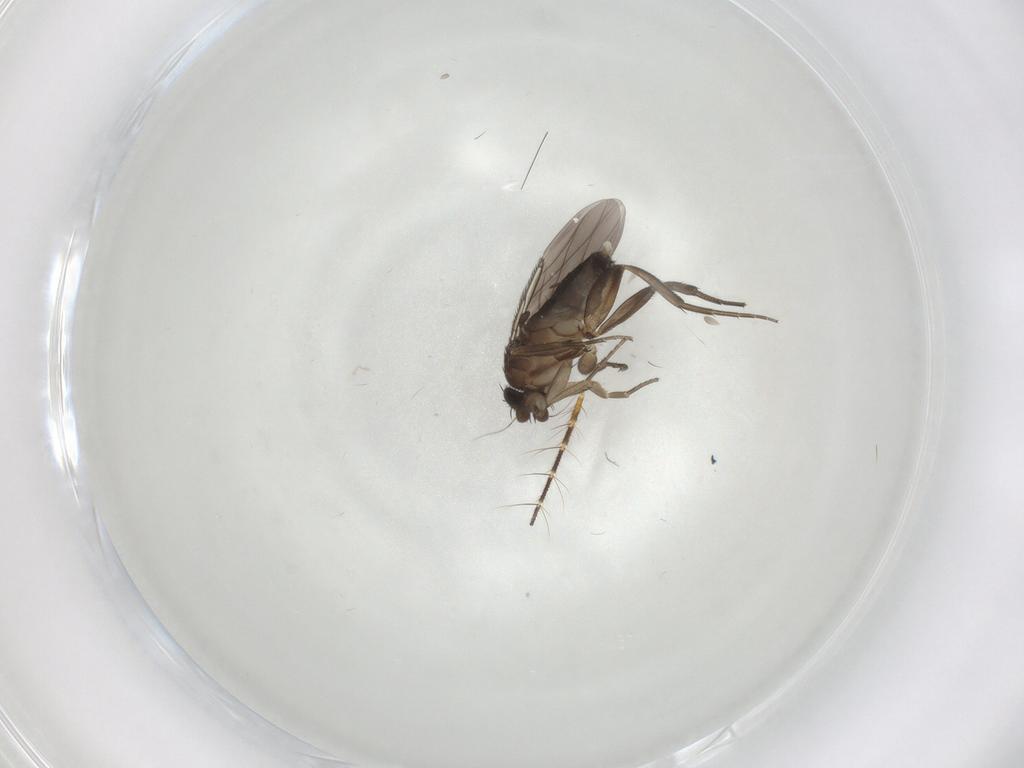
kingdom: Animalia
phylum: Arthropoda
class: Insecta
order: Diptera
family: Phoridae
